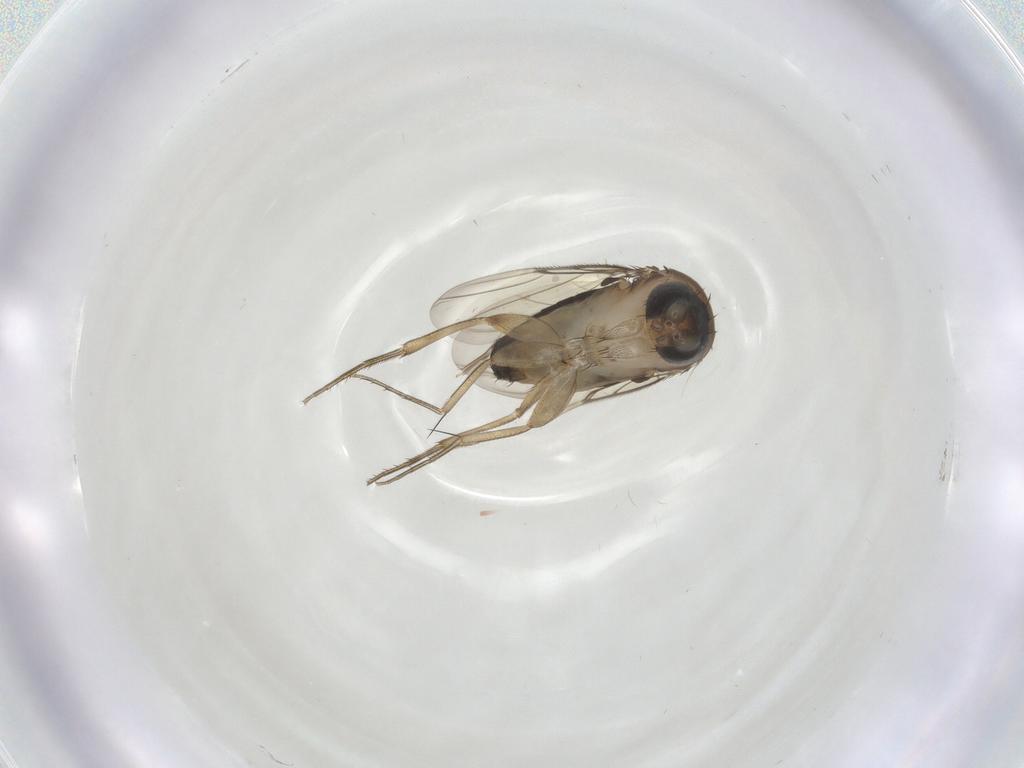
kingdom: Animalia
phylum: Arthropoda
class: Insecta
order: Diptera
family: Phoridae
